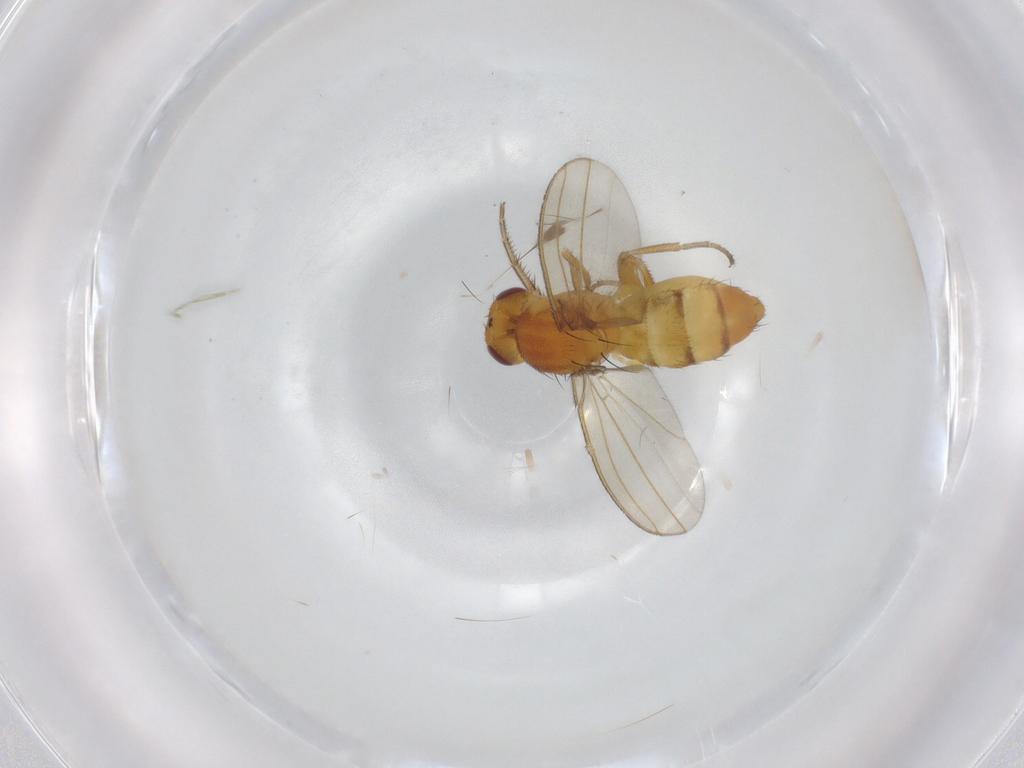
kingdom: Animalia
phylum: Arthropoda
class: Insecta
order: Diptera
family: Mycetophilidae
